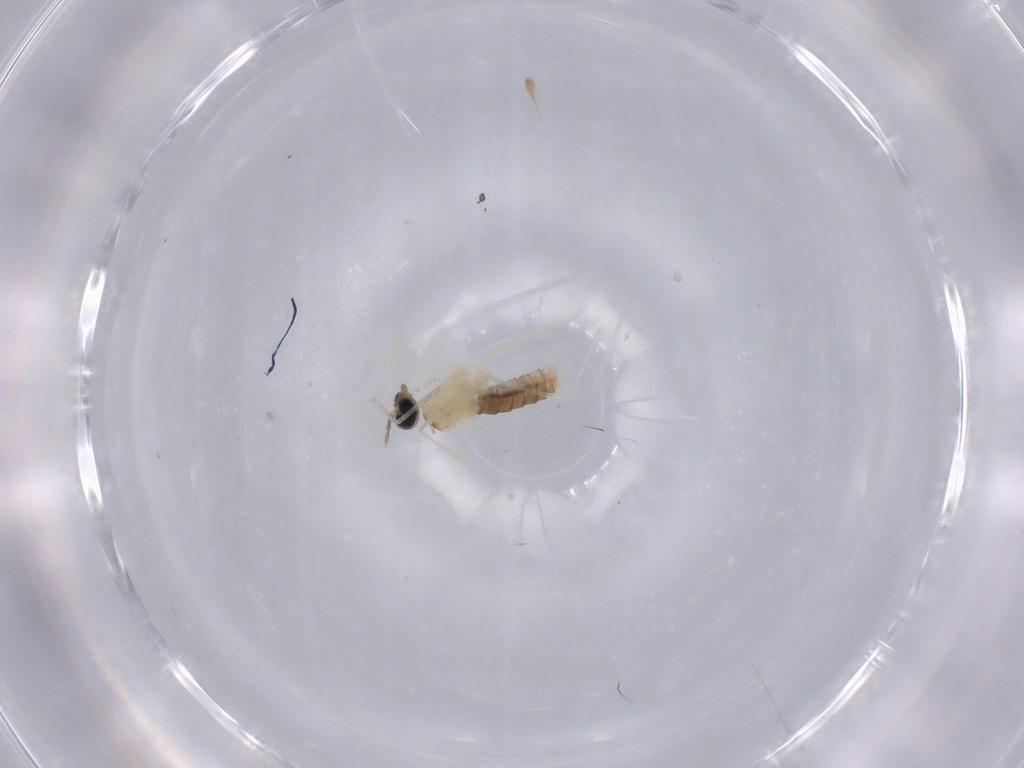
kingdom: Animalia
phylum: Arthropoda
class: Insecta
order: Diptera
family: Cecidomyiidae
